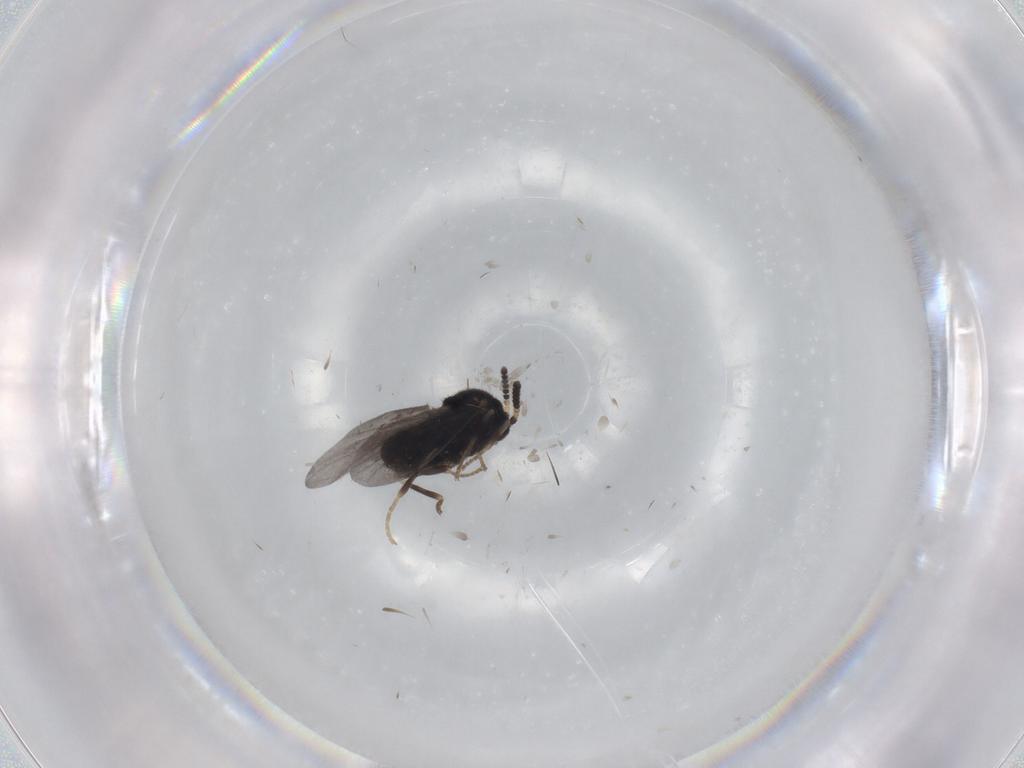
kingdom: Animalia
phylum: Arthropoda
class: Insecta
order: Diptera
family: Scatopsidae
